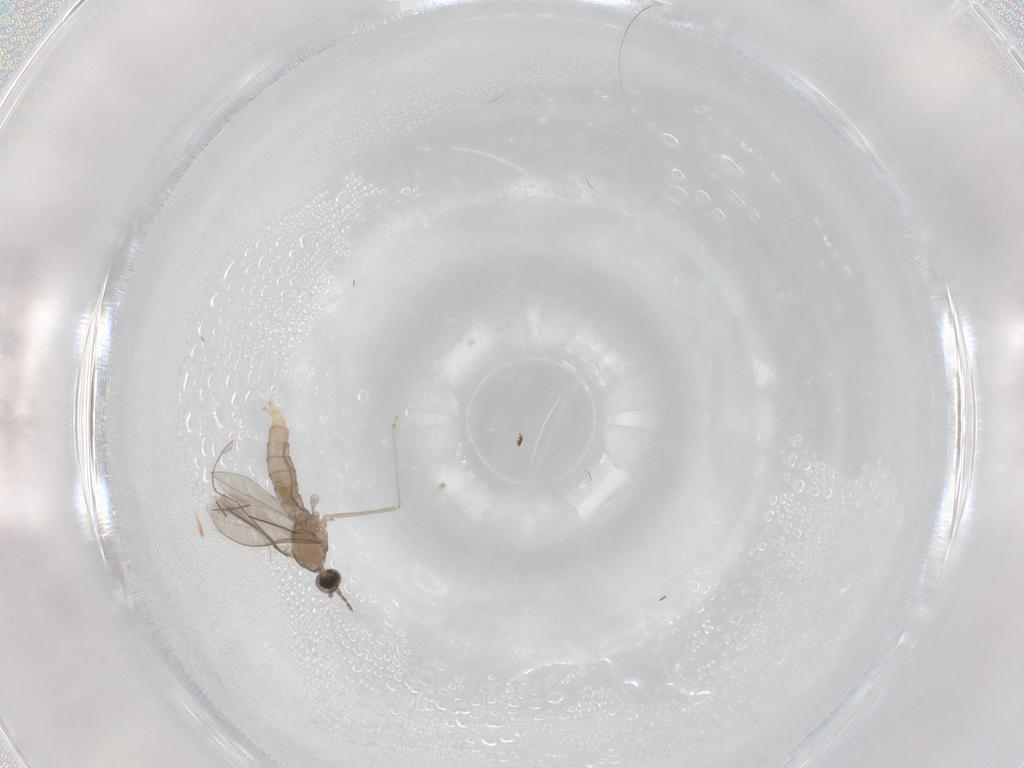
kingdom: Animalia
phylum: Arthropoda
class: Insecta
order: Diptera
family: Cecidomyiidae
